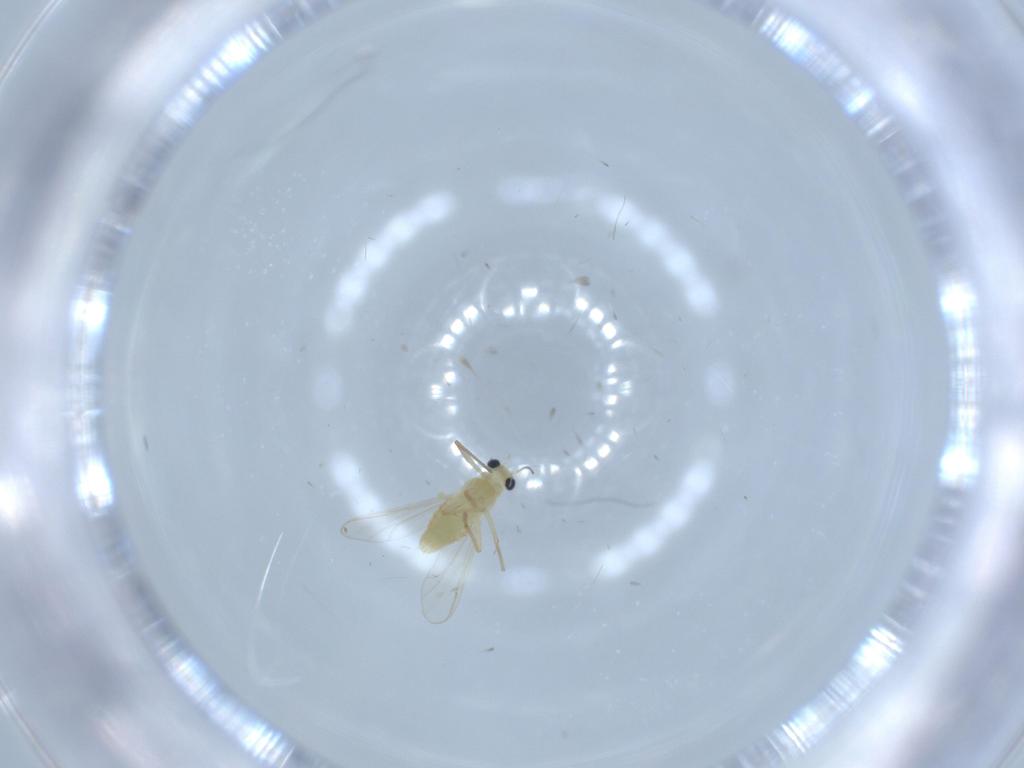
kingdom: Animalia
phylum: Arthropoda
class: Insecta
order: Diptera
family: Chironomidae
